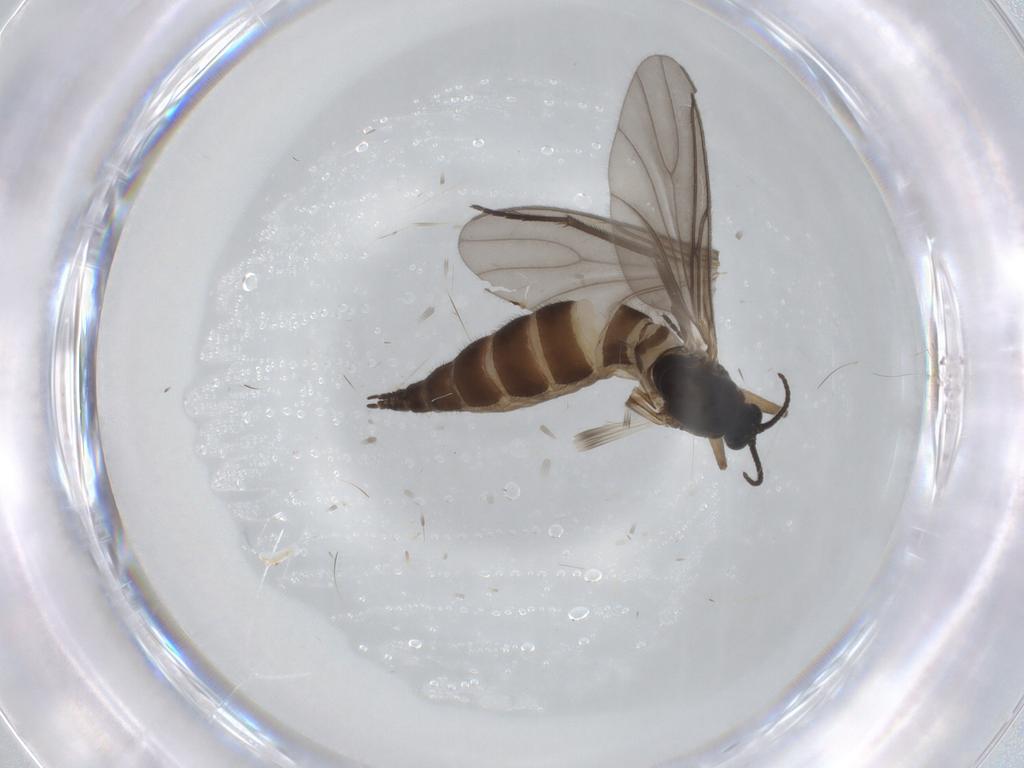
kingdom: Animalia
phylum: Arthropoda
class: Insecta
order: Diptera
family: Sciaridae
